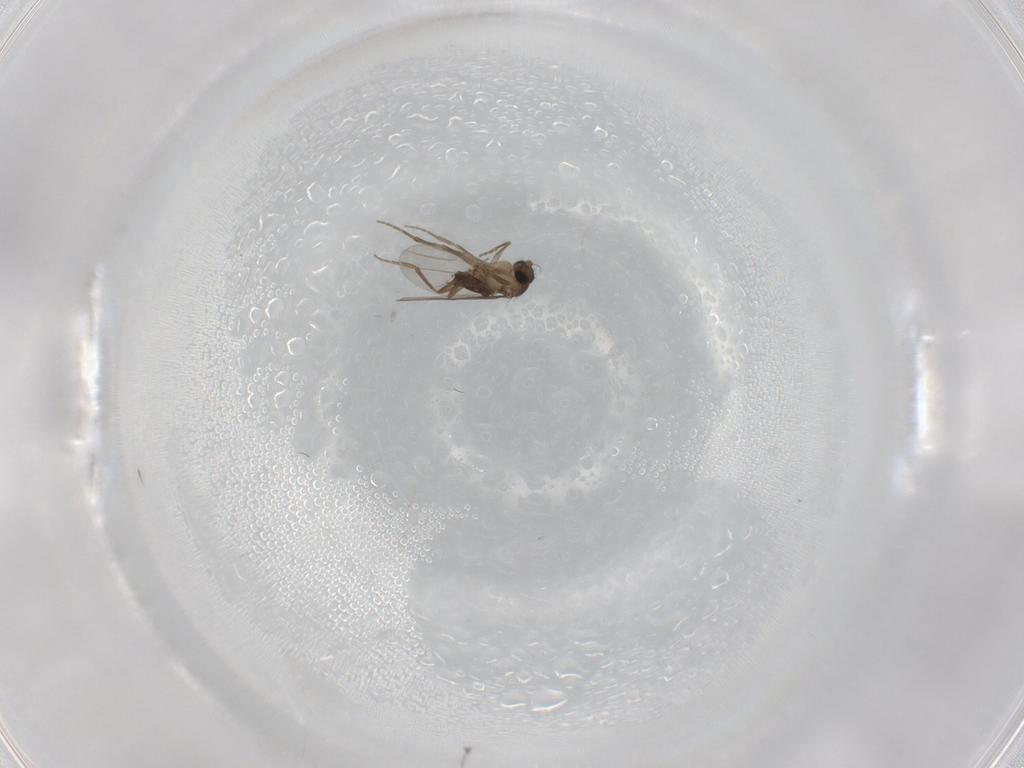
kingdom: Animalia
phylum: Arthropoda
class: Insecta
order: Diptera
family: Phoridae
